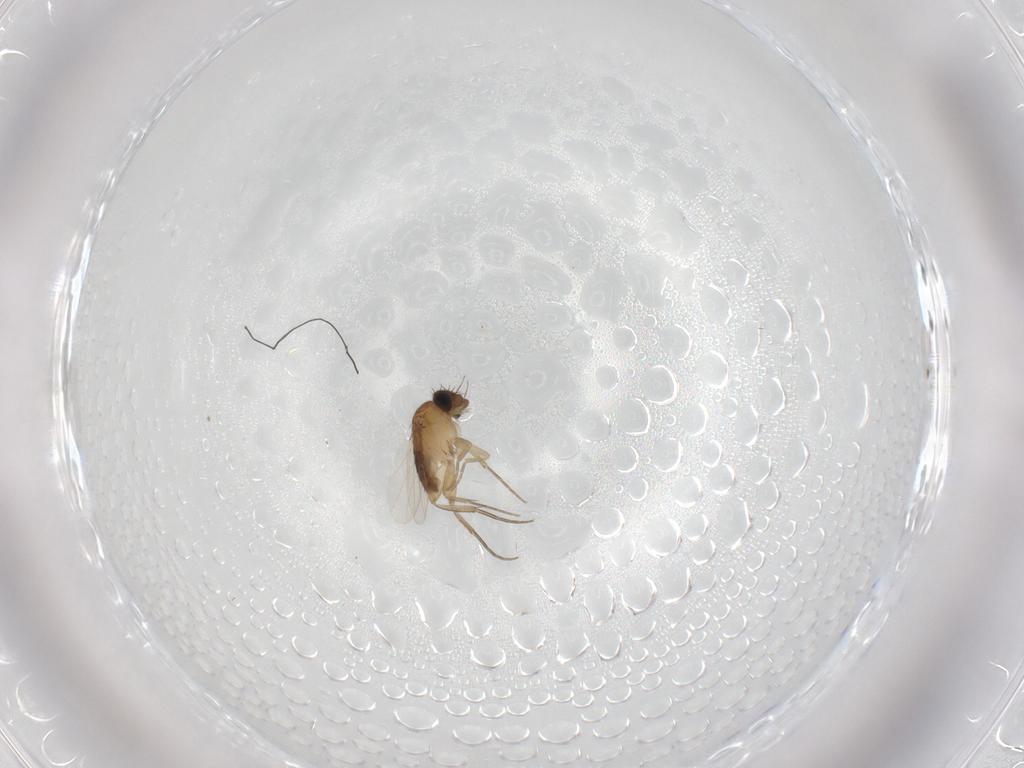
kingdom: Animalia
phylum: Arthropoda
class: Insecta
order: Diptera
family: Phoridae
